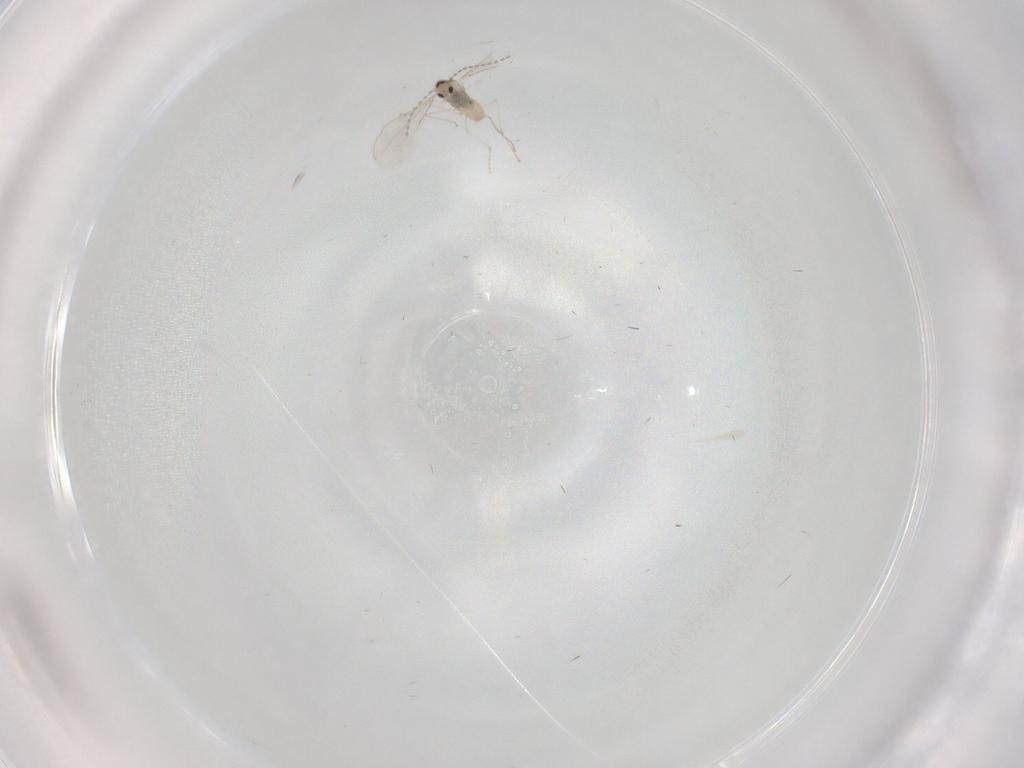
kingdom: Animalia
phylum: Arthropoda
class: Insecta
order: Diptera
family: Cecidomyiidae
